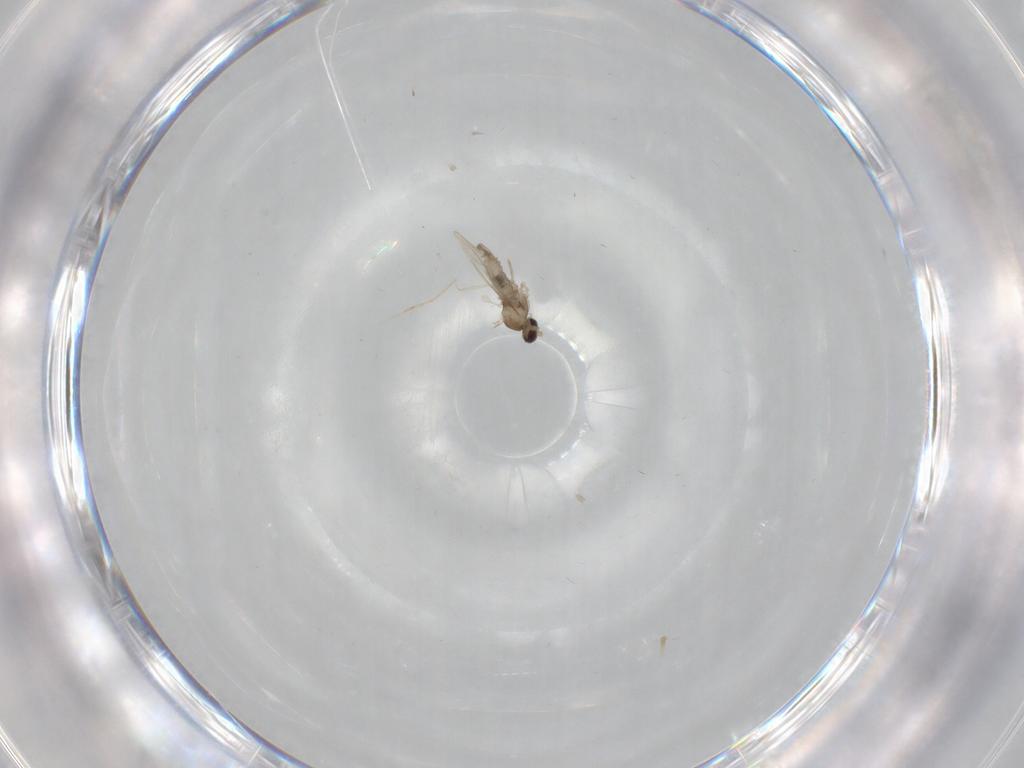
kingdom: Animalia
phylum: Arthropoda
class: Insecta
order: Diptera
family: Cecidomyiidae
